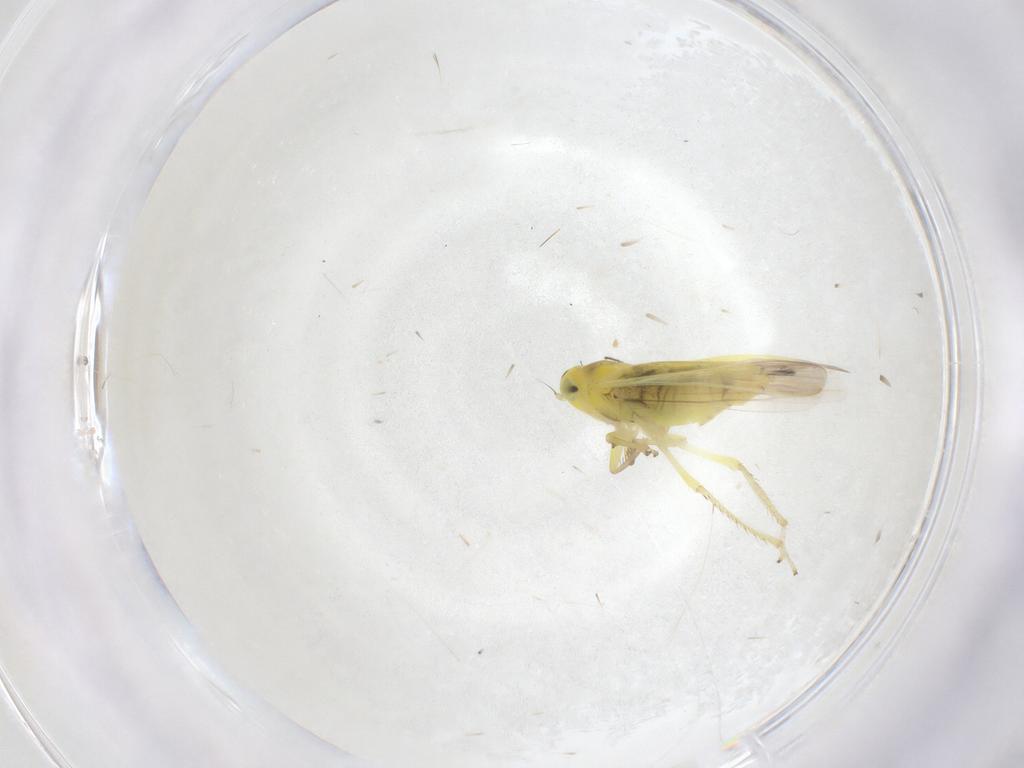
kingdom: Animalia
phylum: Arthropoda
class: Insecta
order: Hemiptera
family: Cicadellidae
